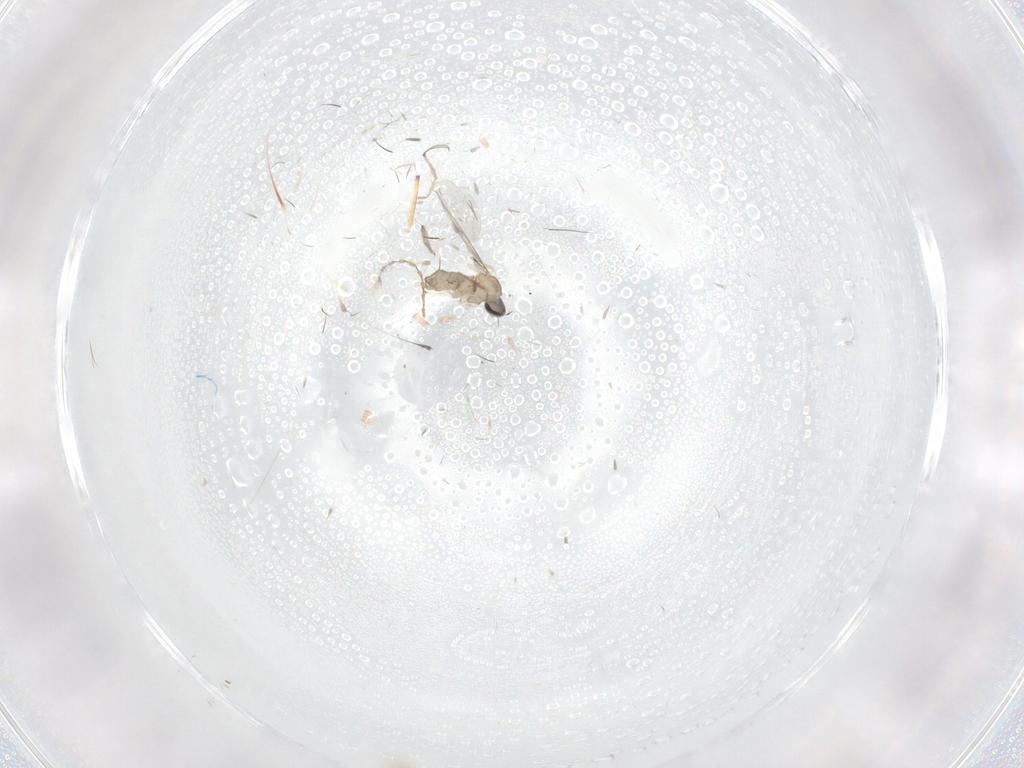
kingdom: Animalia
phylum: Arthropoda
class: Insecta
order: Diptera
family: Cecidomyiidae
